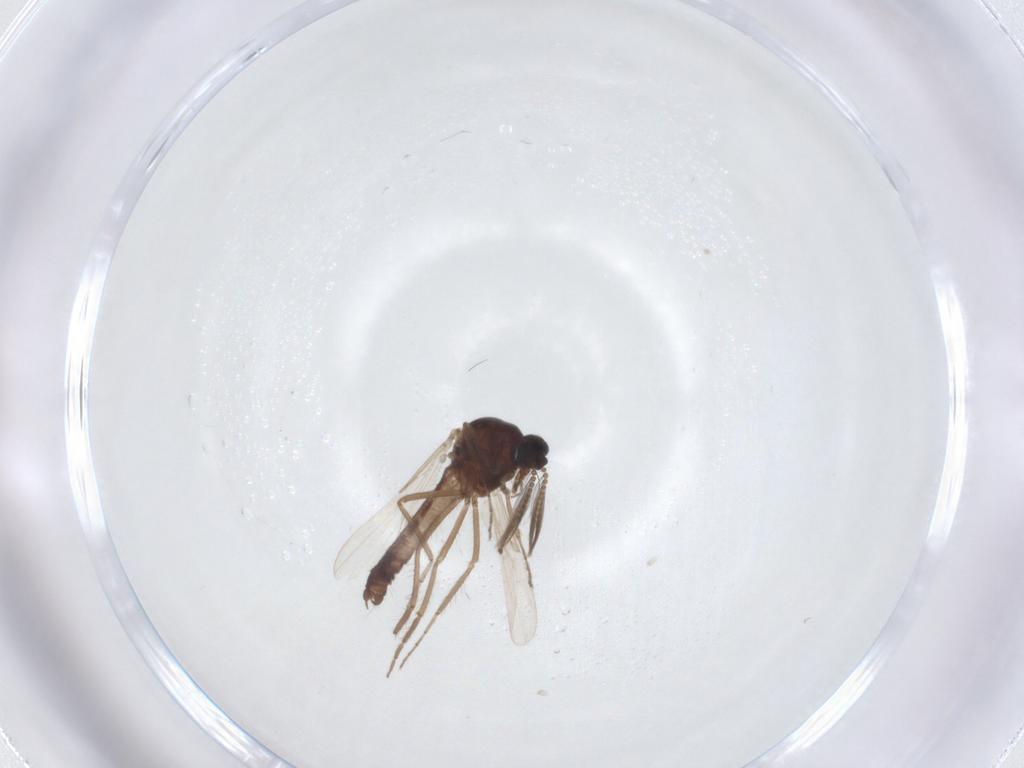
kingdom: Animalia
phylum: Arthropoda
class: Insecta
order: Diptera
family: Ceratopogonidae
